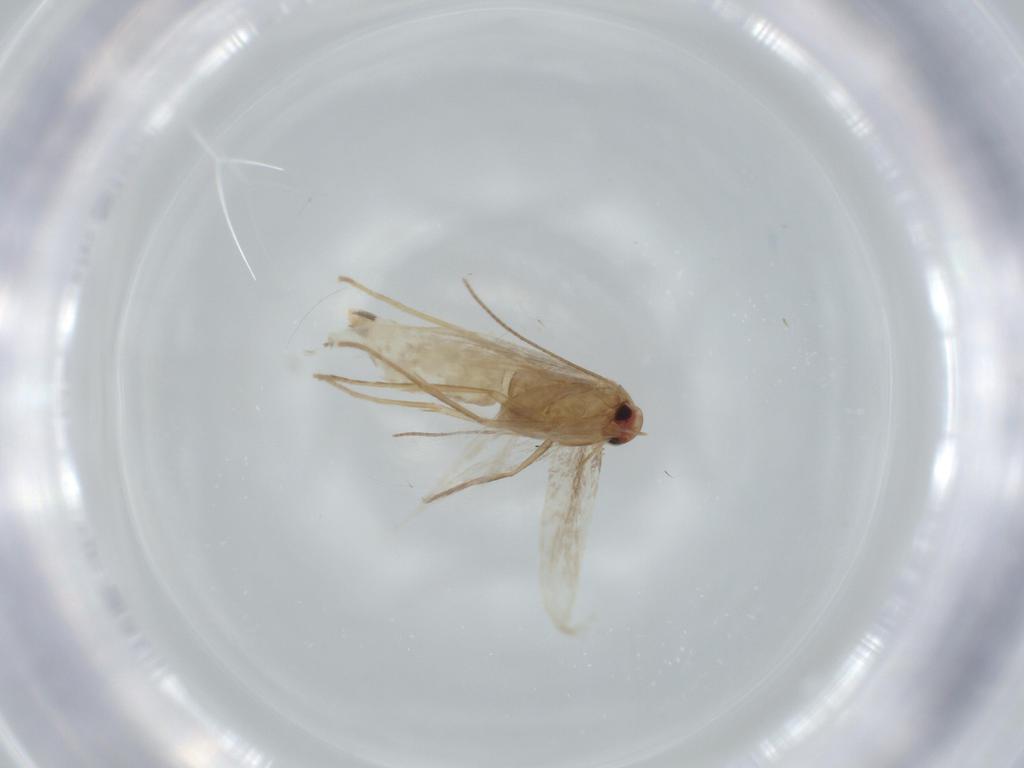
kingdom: Animalia
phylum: Arthropoda
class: Insecta
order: Lepidoptera
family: Gracillariidae
